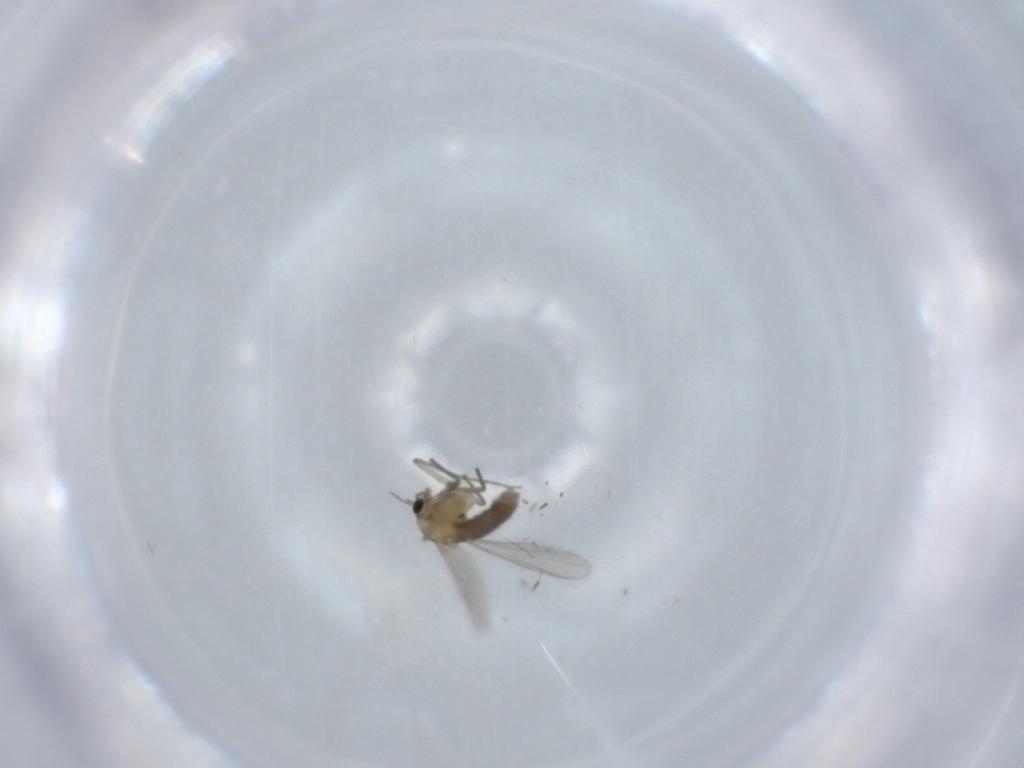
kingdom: Animalia
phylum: Arthropoda
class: Insecta
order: Diptera
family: Chironomidae
